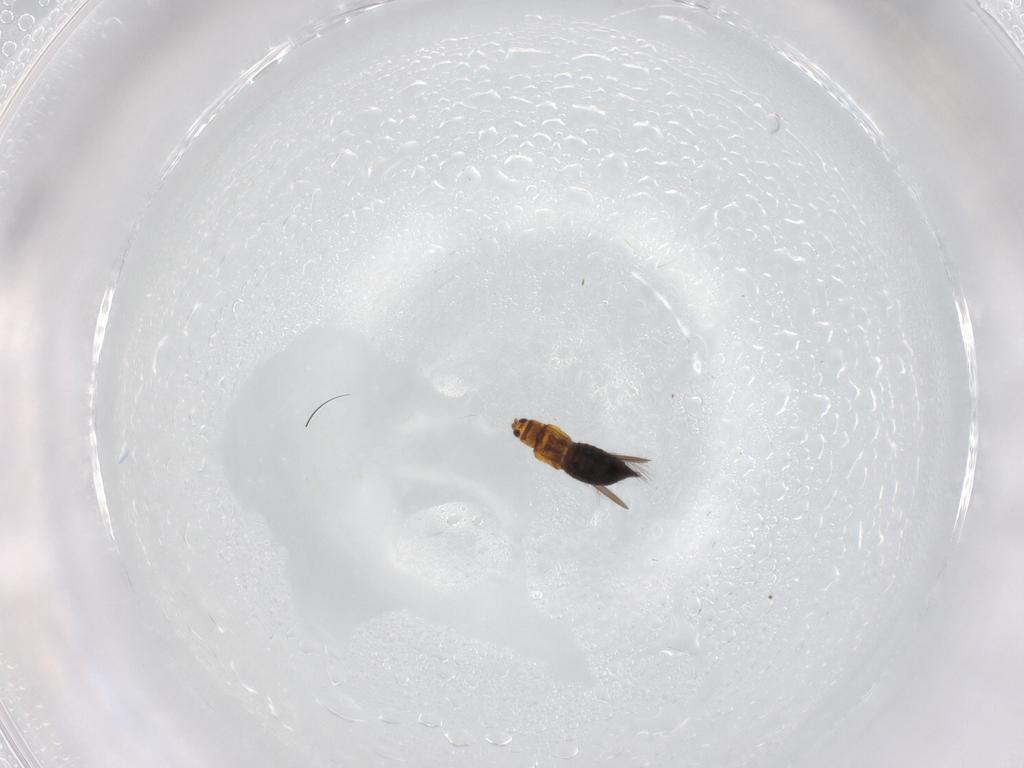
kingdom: Animalia
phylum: Arthropoda
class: Insecta
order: Thysanoptera
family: Thripidae
